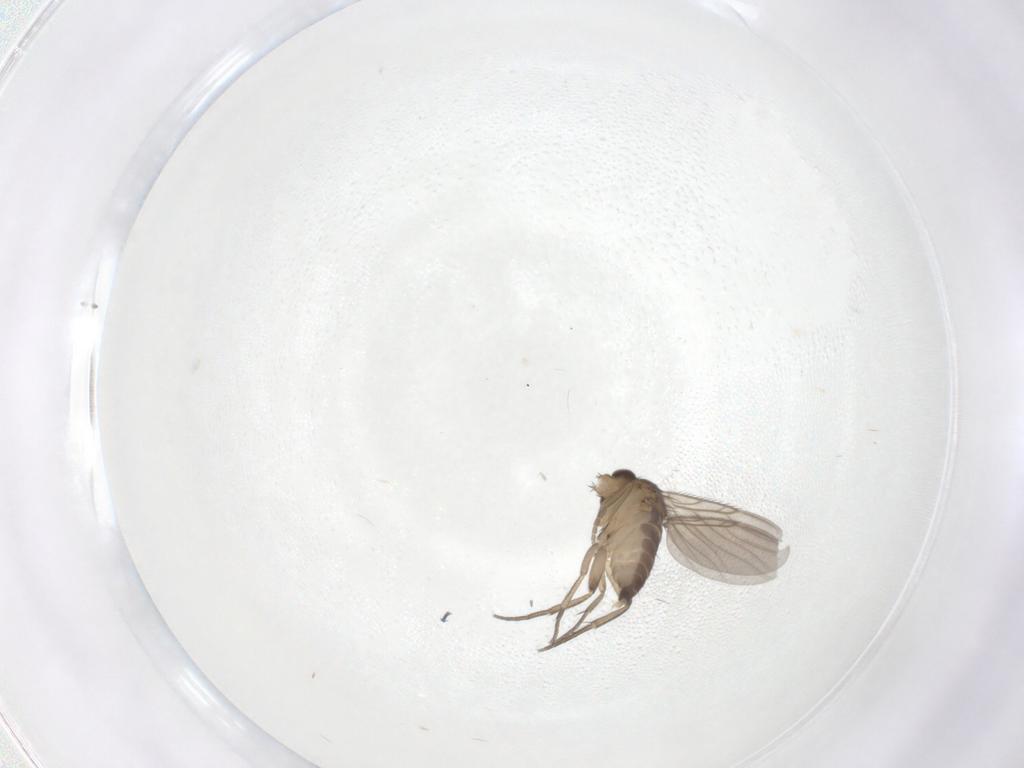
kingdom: Animalia
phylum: Arthropoda
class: Insecta
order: Diptera
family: Phoridae
